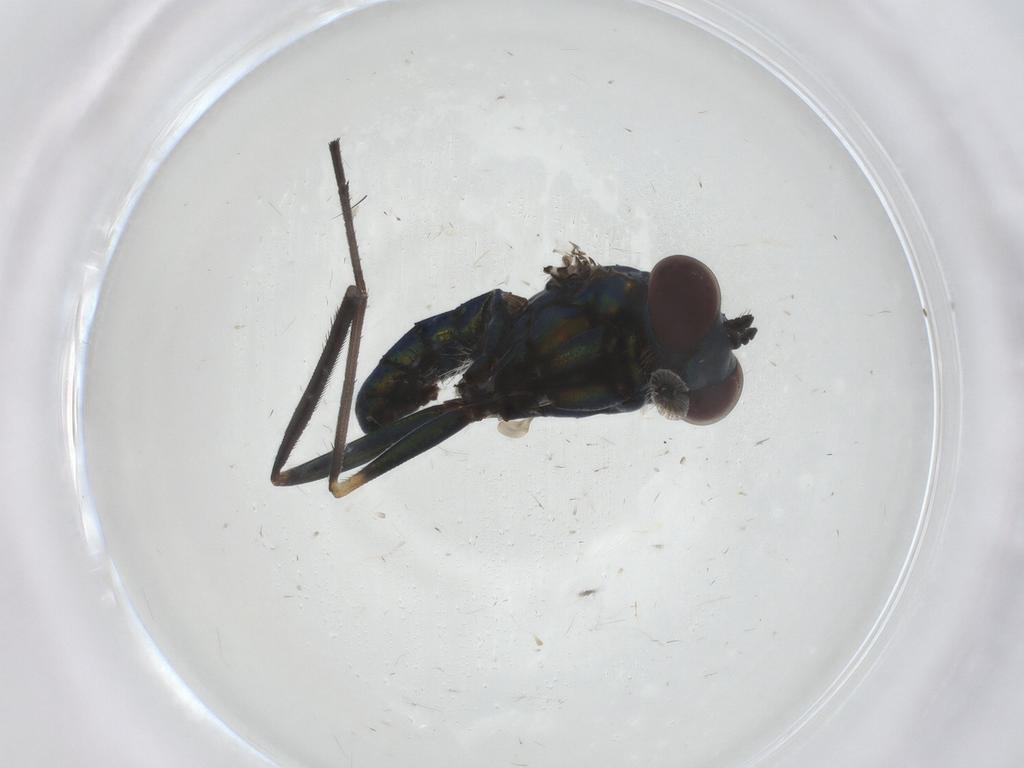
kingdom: Animalia
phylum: Arthropoda
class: Insecta
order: Diptera
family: Dolichopodidae
